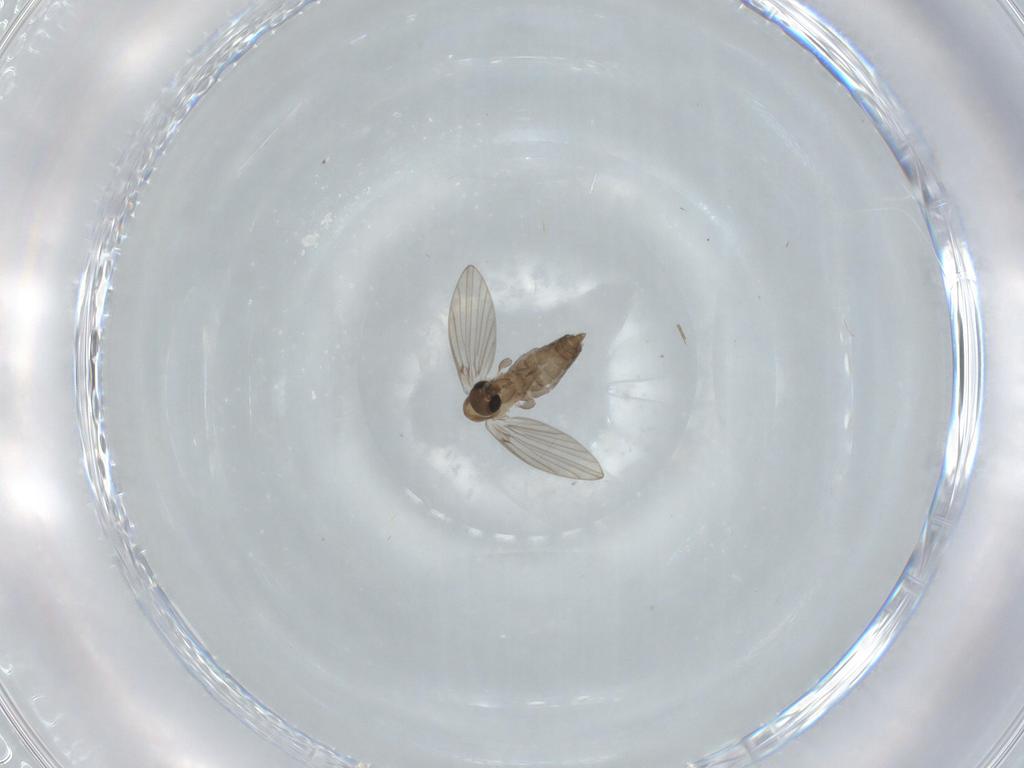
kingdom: Animalia
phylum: Arthropoda
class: Insecta
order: Diptera
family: Psychodidae
